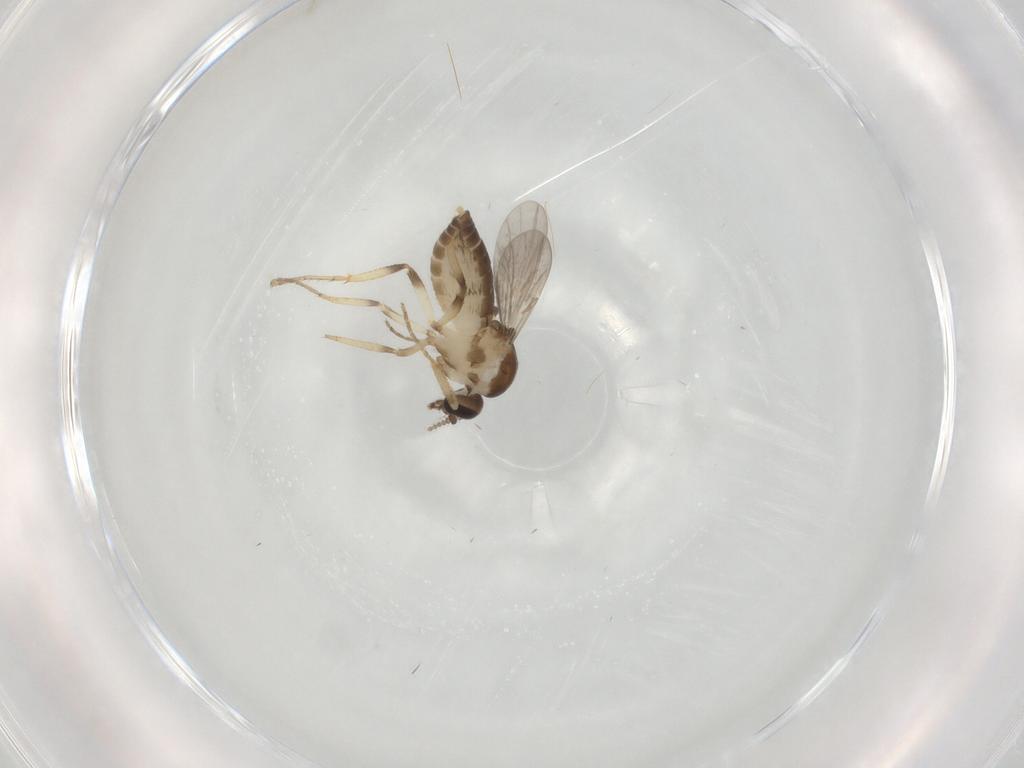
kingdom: Animalia
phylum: Arthropoda
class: Insecta
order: Diptera
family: Ceratopogonidae
